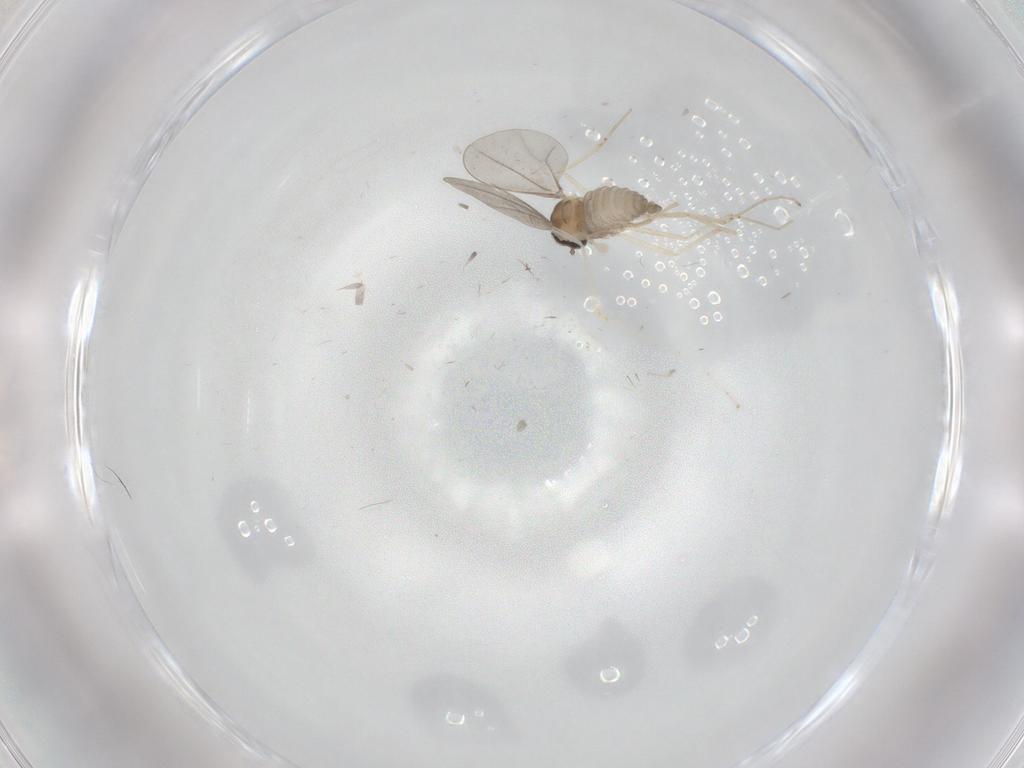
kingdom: Animalia
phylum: Arthropoda
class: Insecta
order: Diptera
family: Cecidomyiidae
